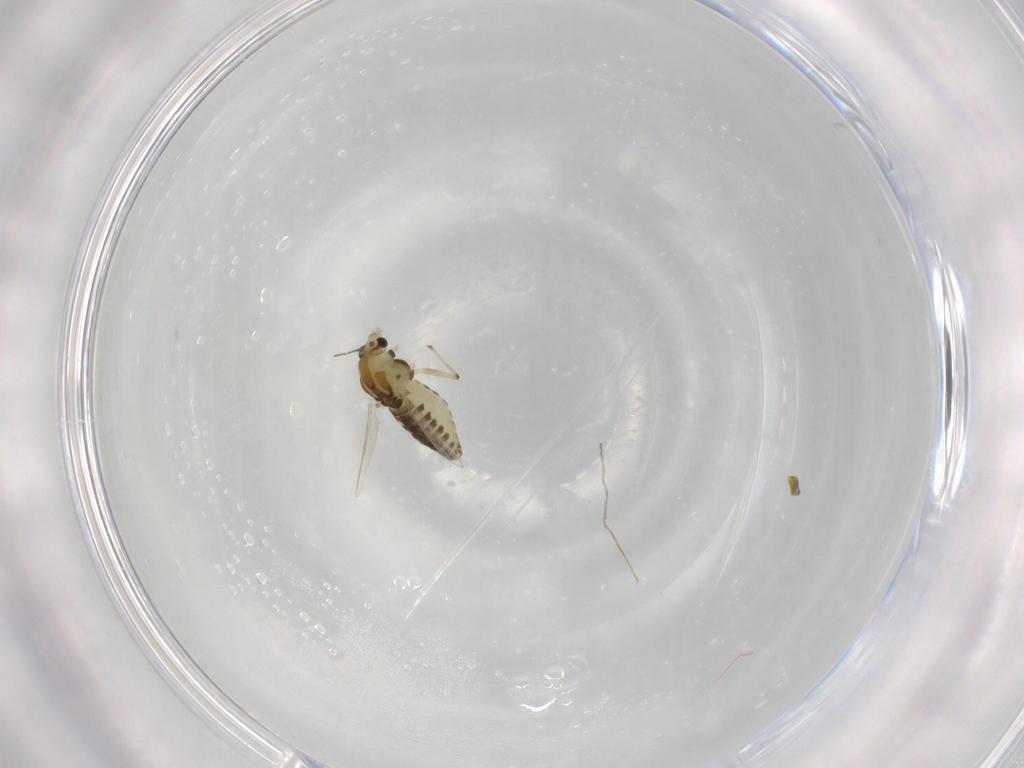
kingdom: Animalia
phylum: Arthropoda
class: Insecta
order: Diptera
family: Chironomidae
